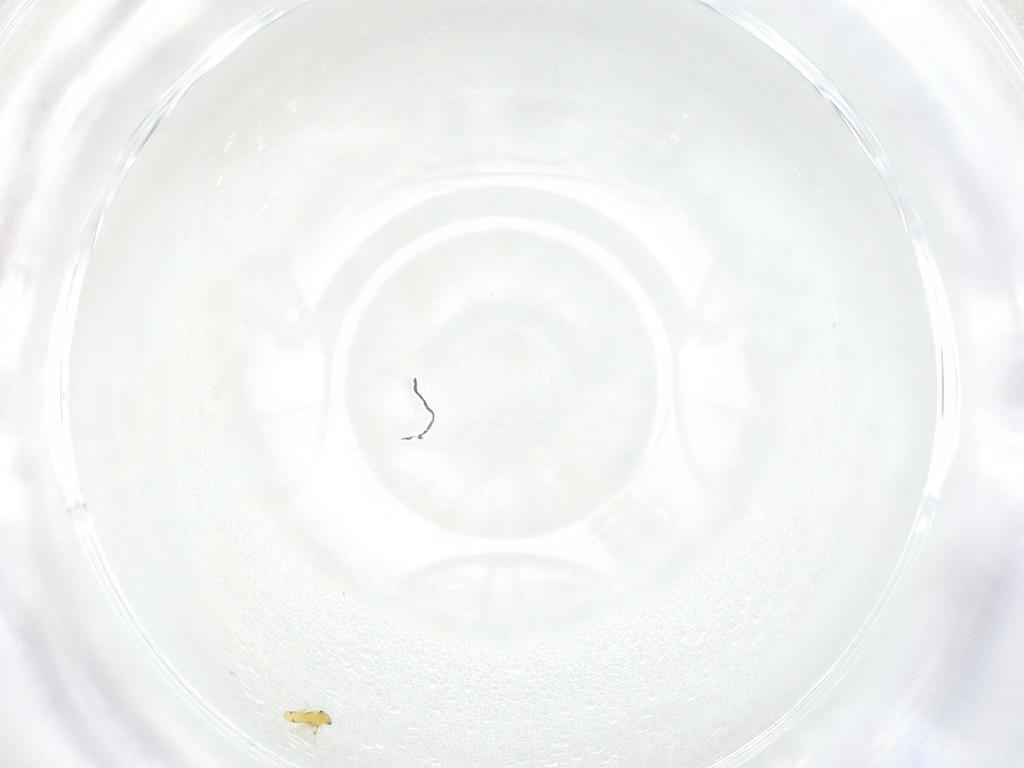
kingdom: Animalia
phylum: Arthropoda
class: Insecta
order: Hymenoptera
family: Trichogrammatidae
